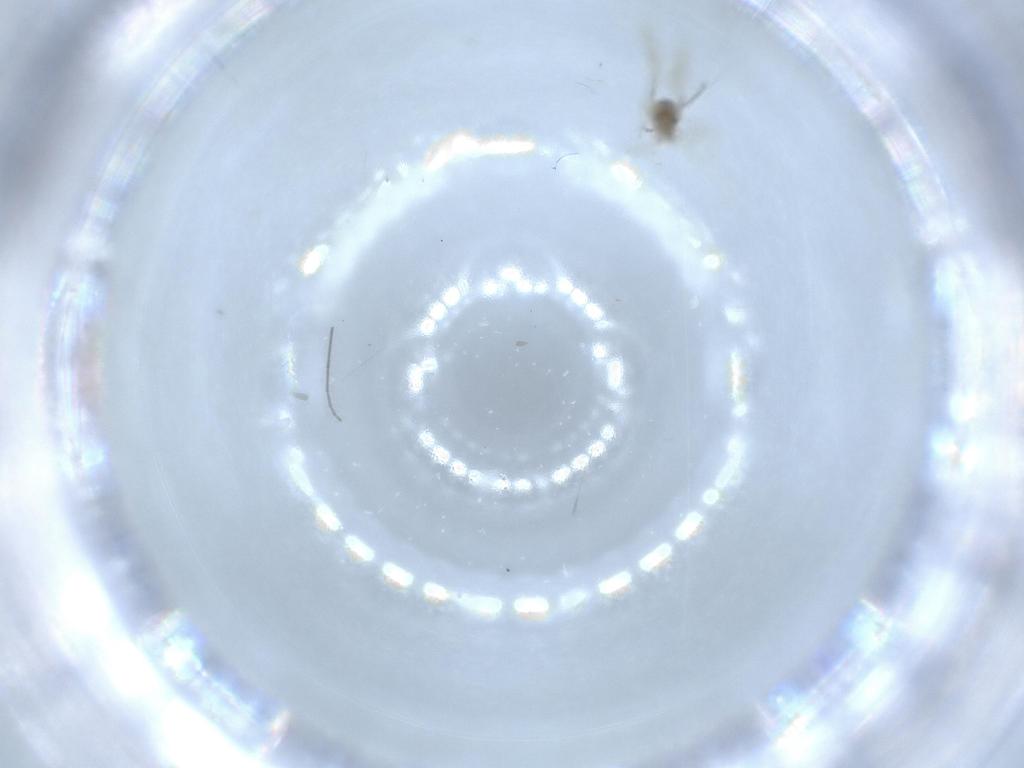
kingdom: Animalia
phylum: Arthropoda
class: Insecta
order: Diptera
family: Cecidomyiidae
